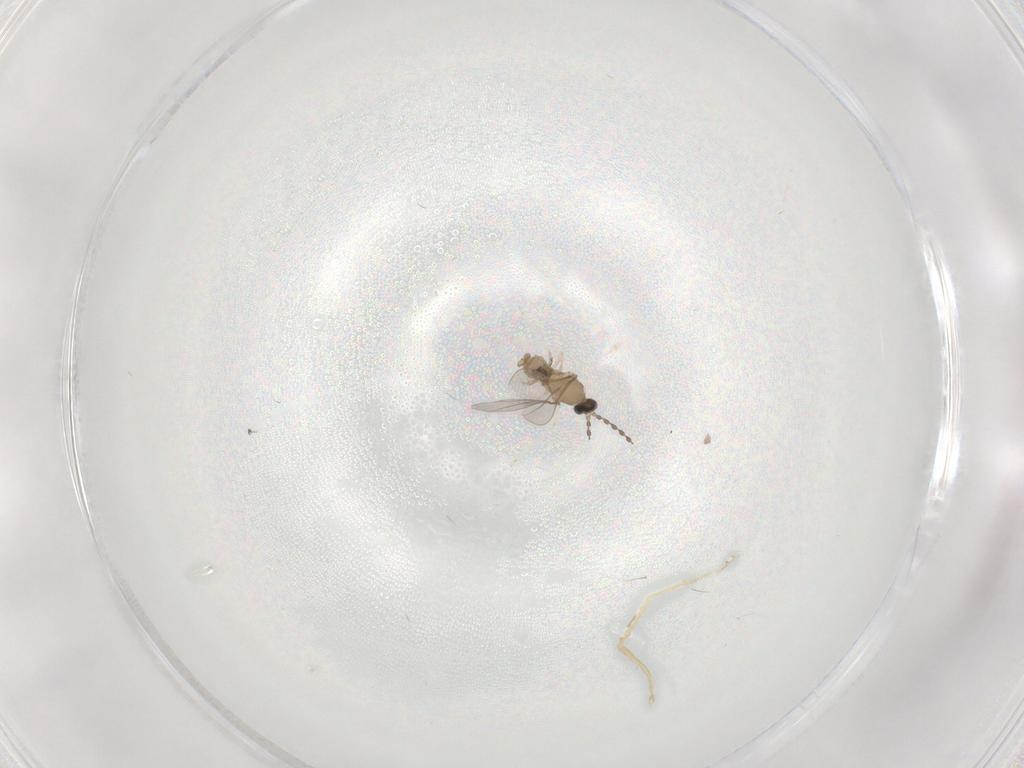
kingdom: Animalia
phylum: Arthropoda
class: Insecta
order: Diptera
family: Cecidomyiidae
